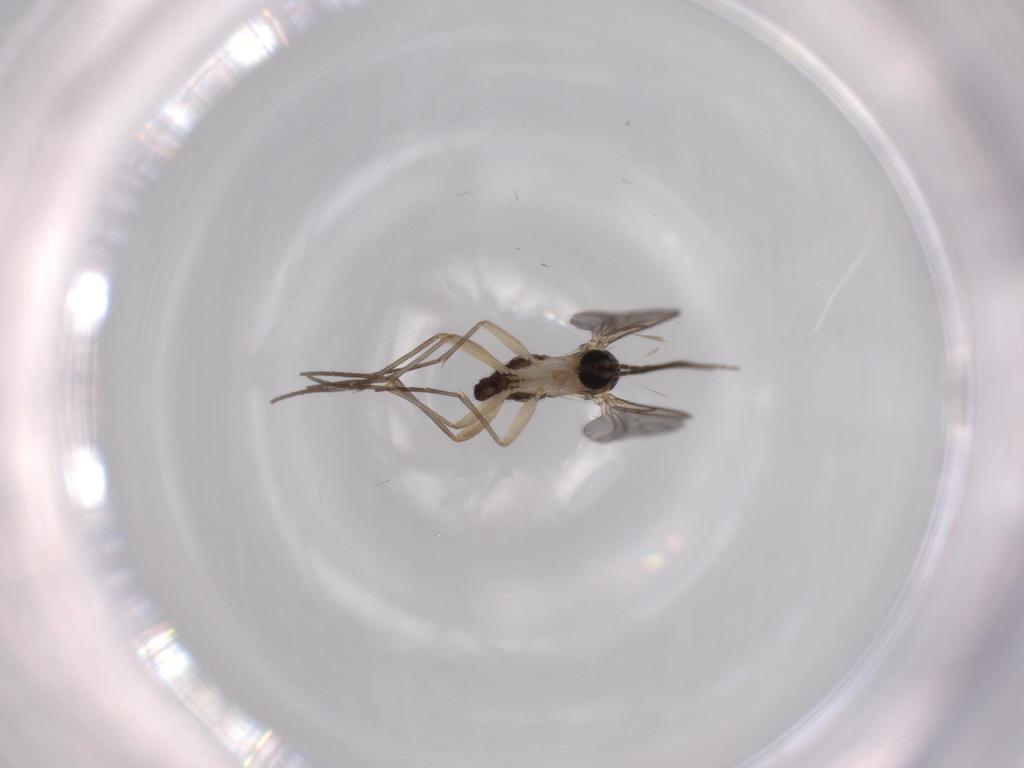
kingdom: Animalia
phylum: Arthropoda
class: Insecta
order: Diptera
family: Sciaridae
